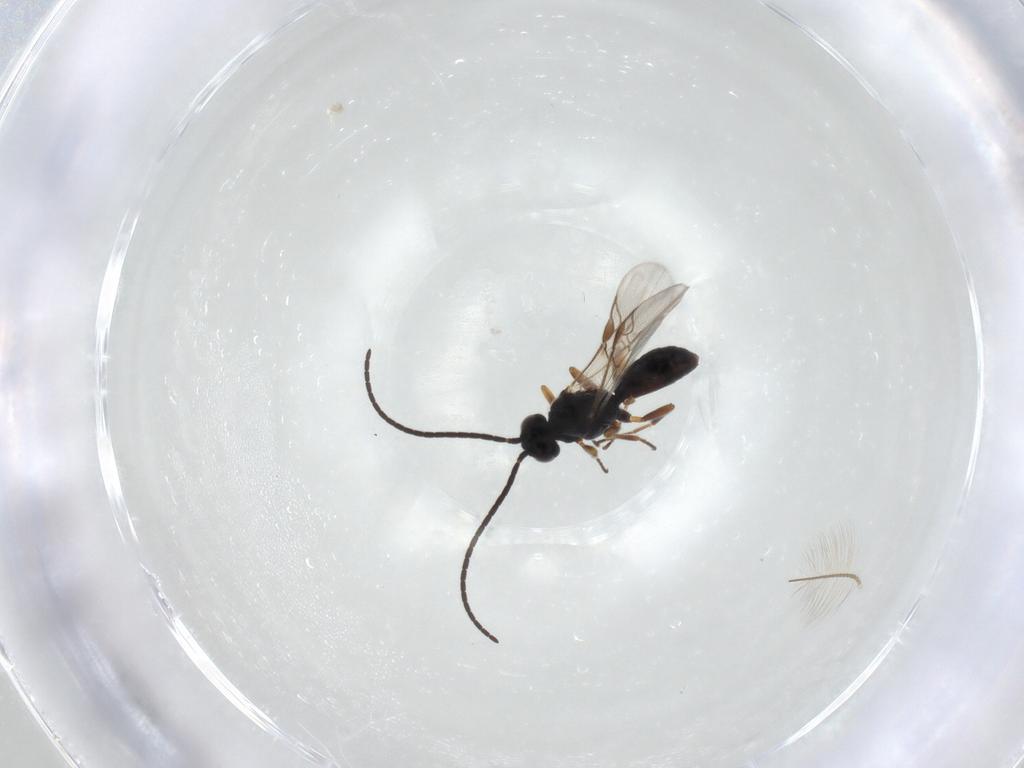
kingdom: Animalia
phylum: Arthropoda
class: Insecta
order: Hymenoptera
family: Braconidae
